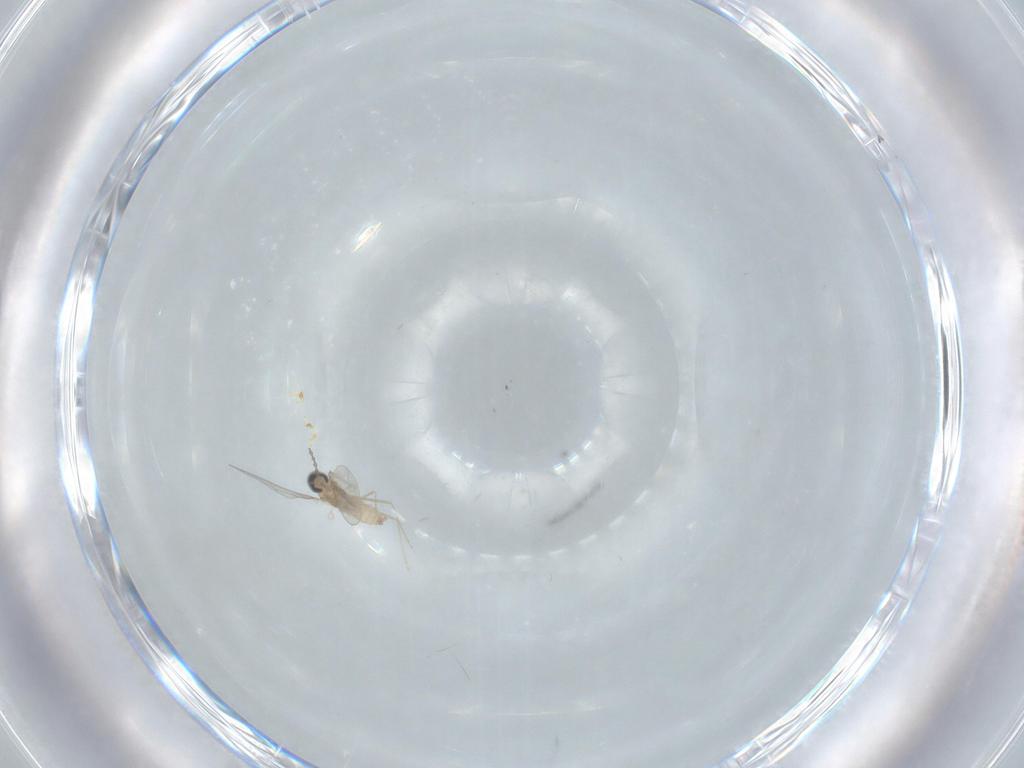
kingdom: Animalia
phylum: Arthropoda
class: Insecta
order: Diptera
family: Cecidomyiidae
